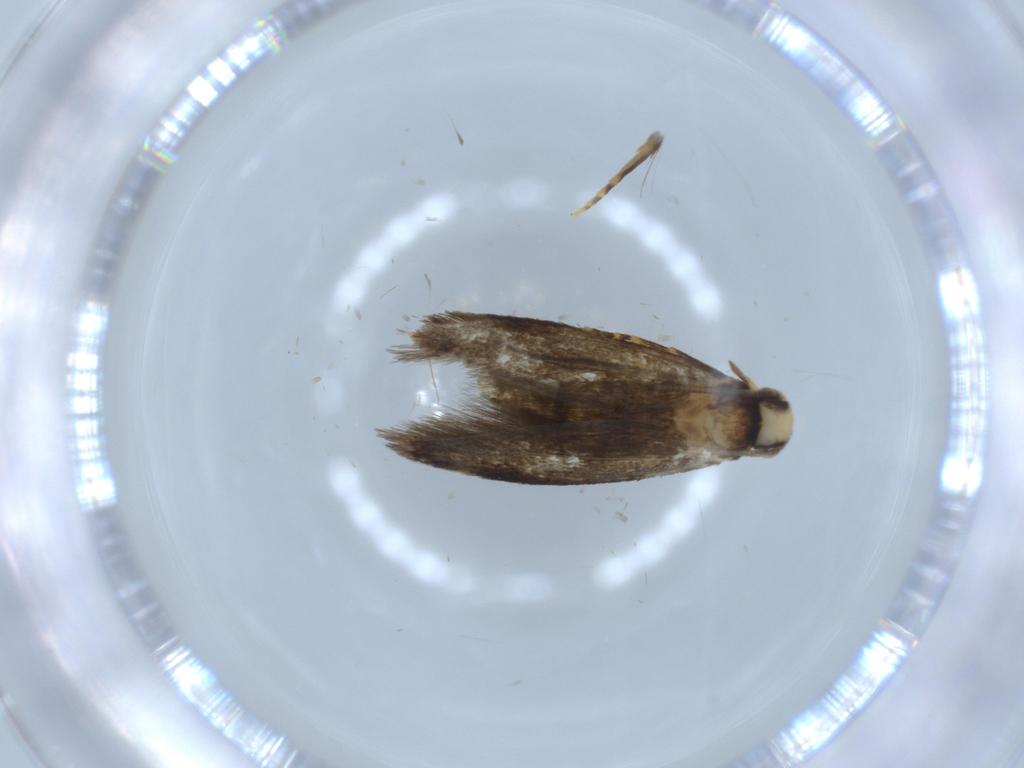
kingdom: Animalia
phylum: Arthropoda
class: Insecta
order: Lepidoptera
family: Tineidae
